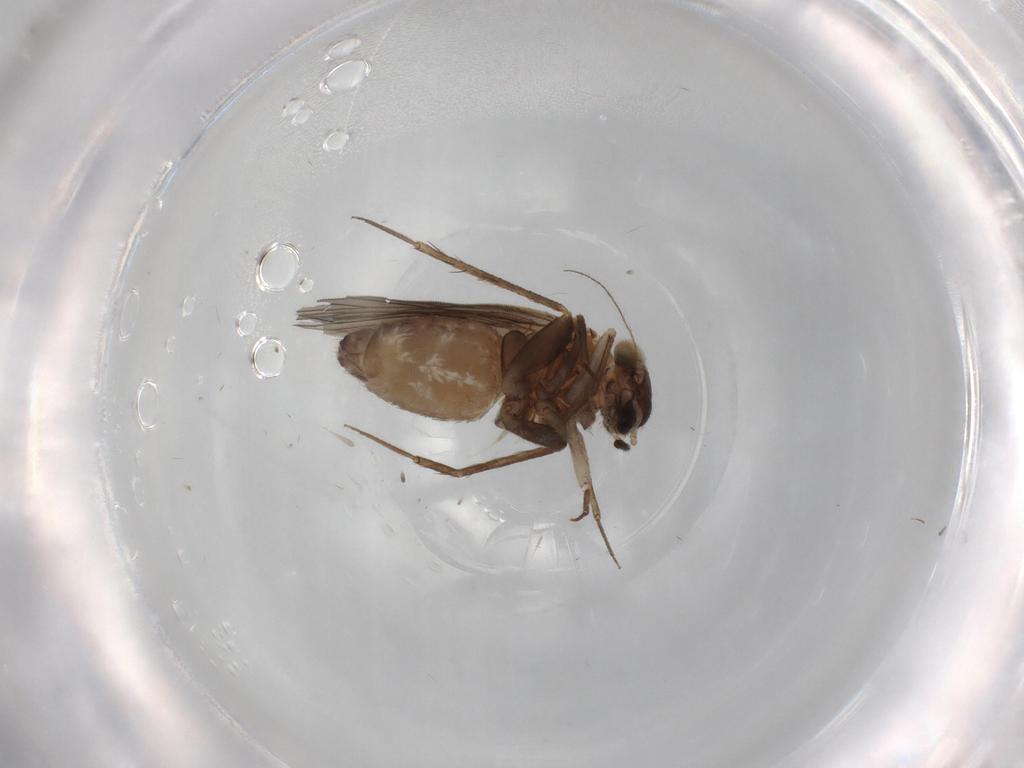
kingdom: Animalia
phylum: Arthropoda
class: Insecta
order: Psocodea
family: Lepidopsocidae
